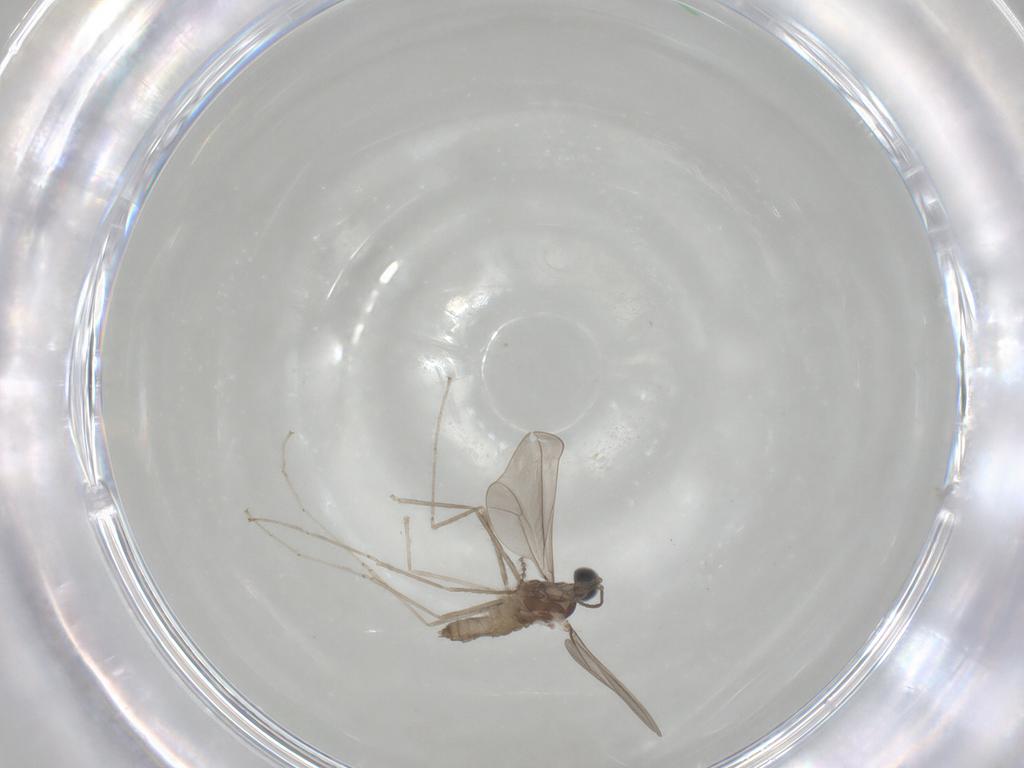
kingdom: Animalia
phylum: Arthropoda
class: Insecta
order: Diptera
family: Cecidomyiidae
